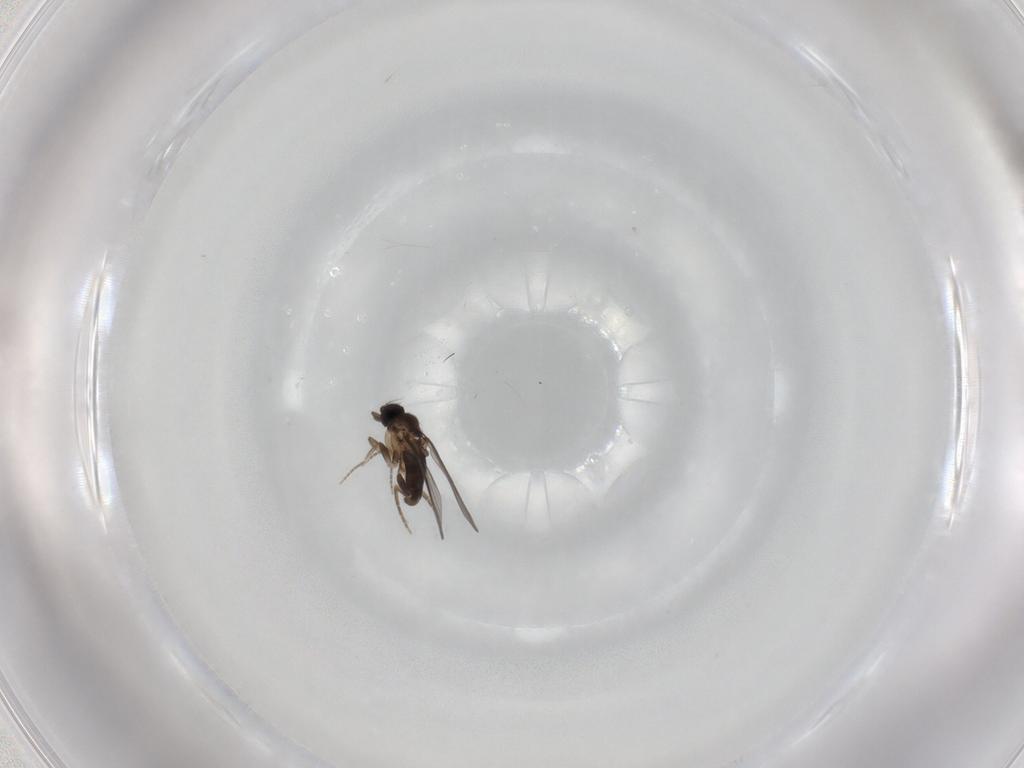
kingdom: Animalia
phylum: Arthropoda
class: Insecta
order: Diptera
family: Cecidomyiidae
